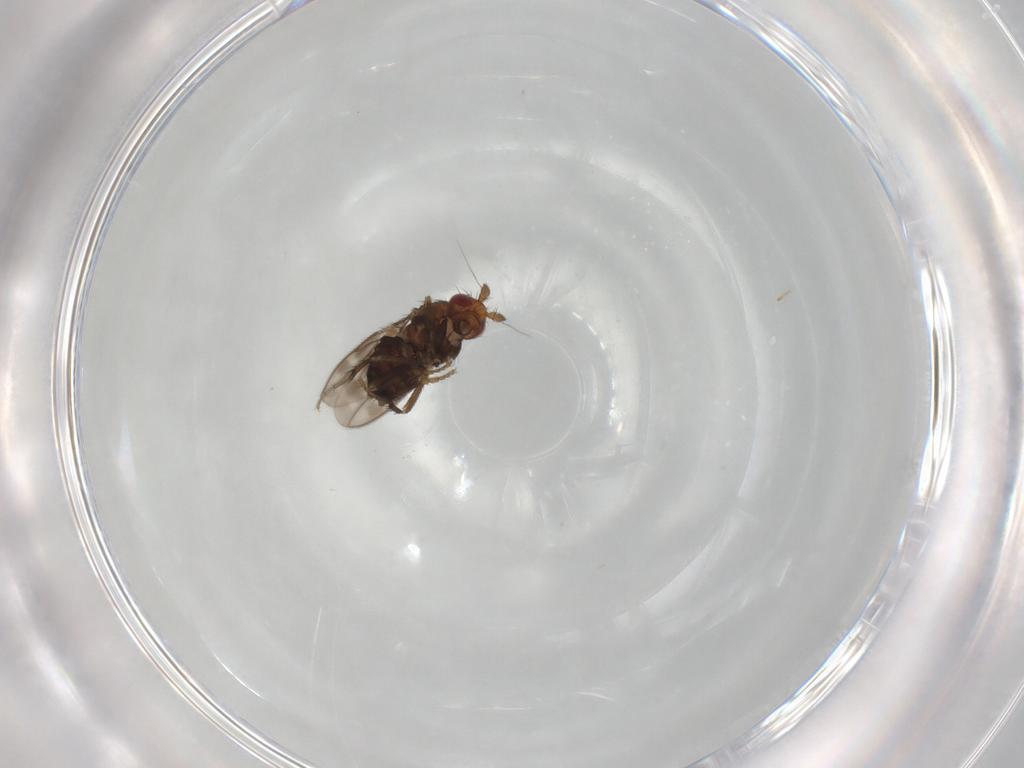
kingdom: Animalia
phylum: Arthropoda
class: Insecta
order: Diptera
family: Sphaeroceridae
